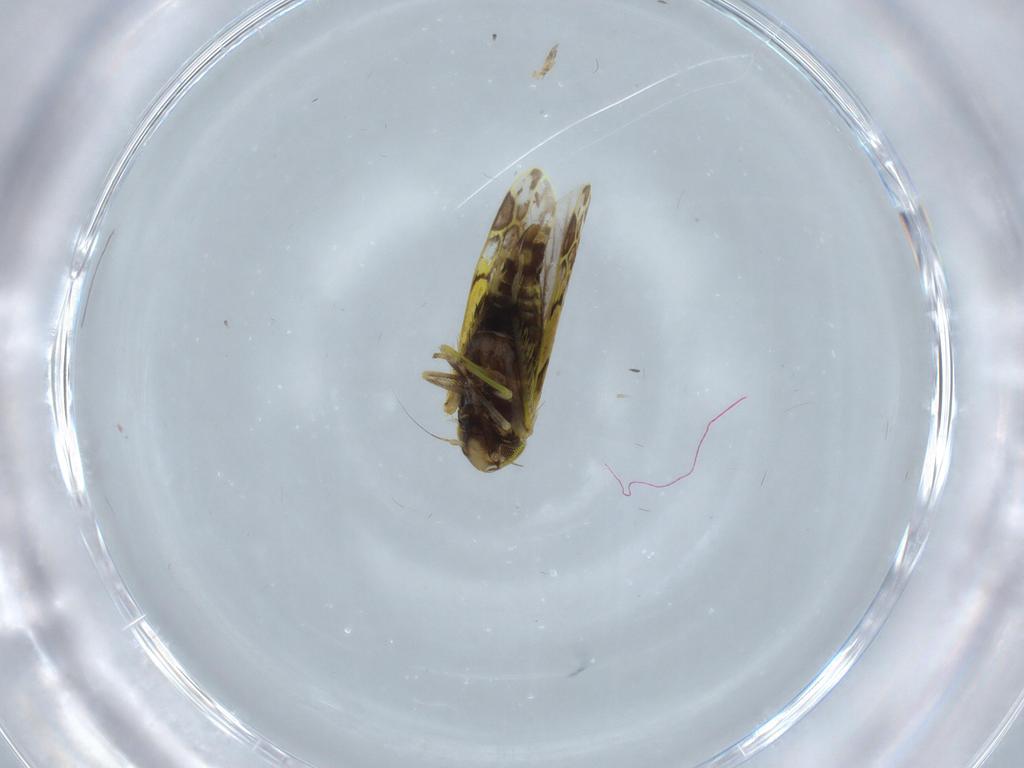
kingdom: Animalia
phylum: Arthropoda
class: Insecta
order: Hemiptera
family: Cicadellidae
